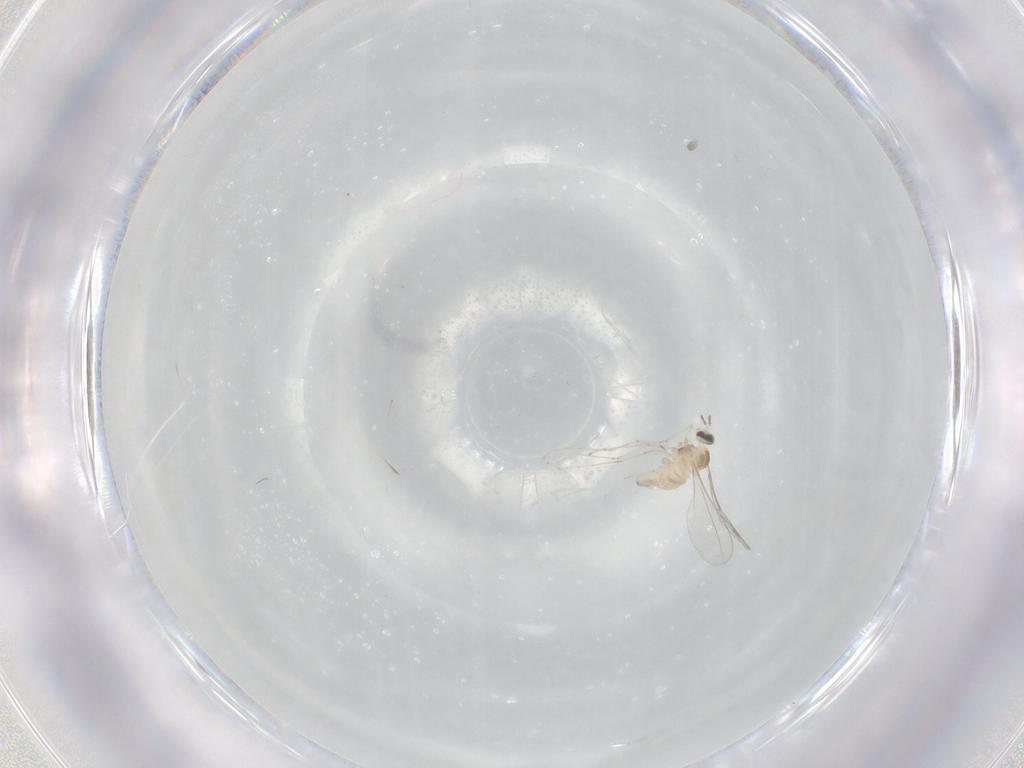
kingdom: Animalia
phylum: Arthropoda
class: Insecta
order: Diptera
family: Cecidomyiidae
